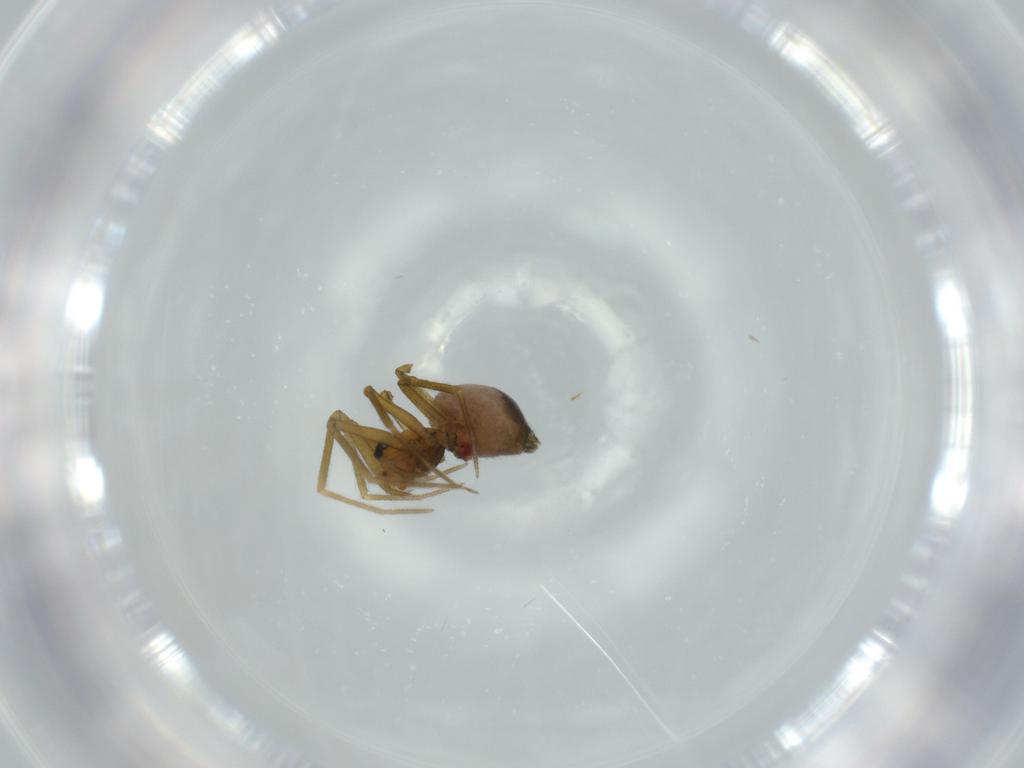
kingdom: Animalia
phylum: Arthropoda
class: Arachnida
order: Araneae
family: Linyphiidae
